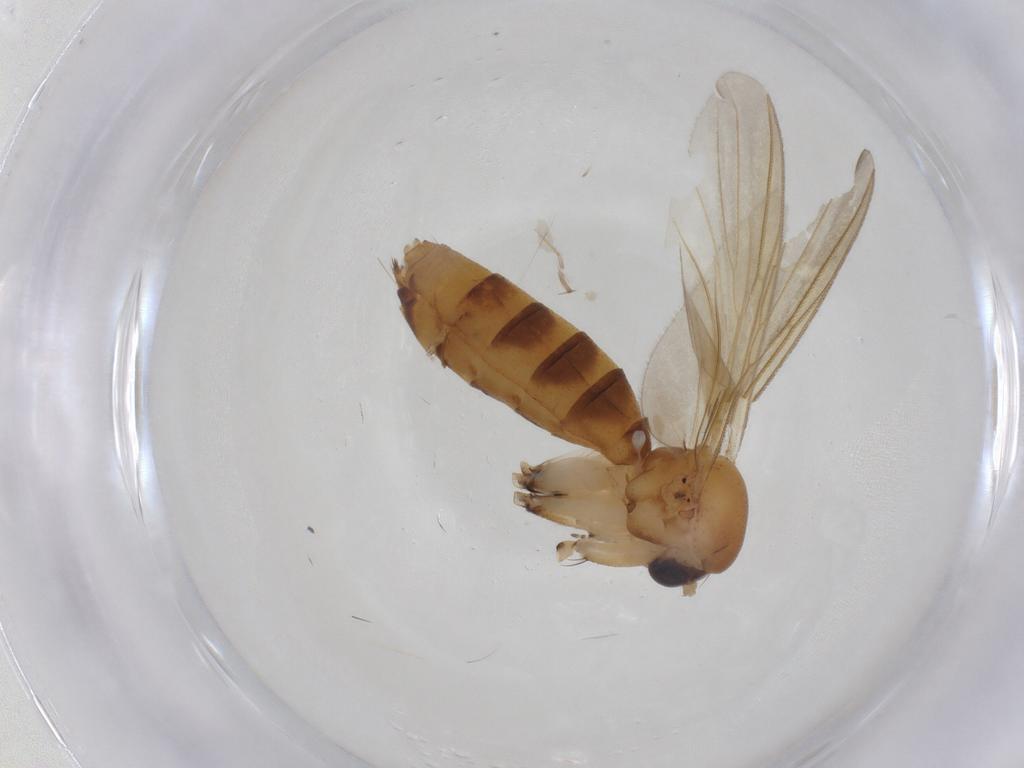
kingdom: Animalia
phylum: Arthropoda
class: Insecta
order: Diptera
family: Mycetophilidae
